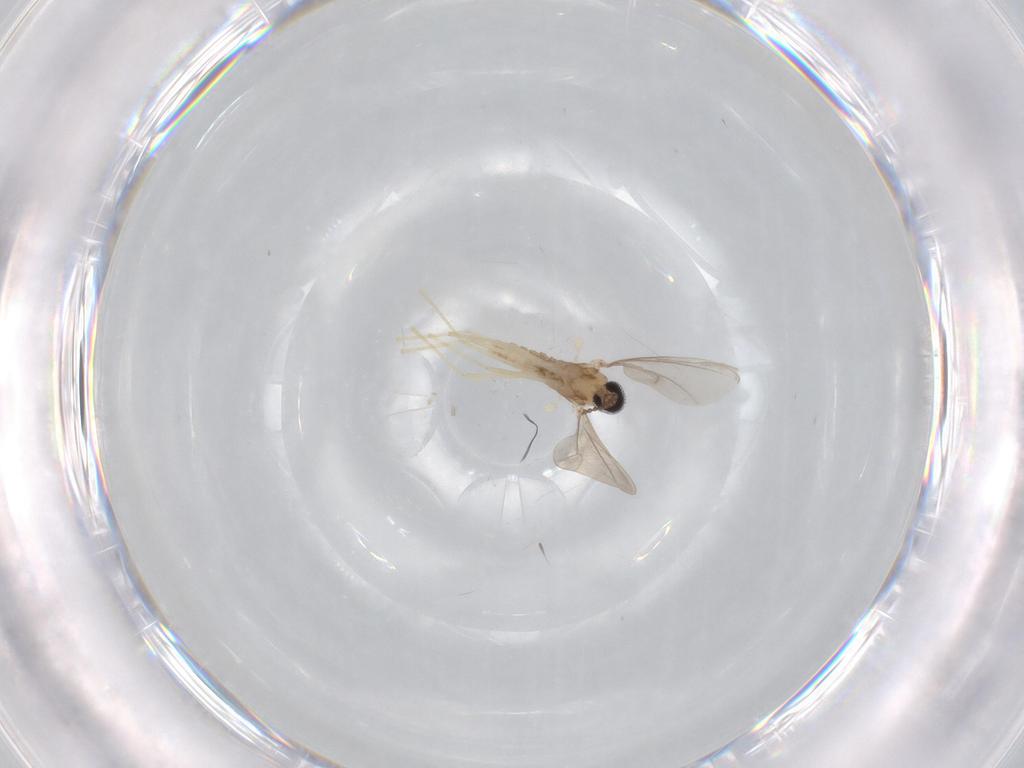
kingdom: Animalia
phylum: Arthropoda
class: Insecta
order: Diptera
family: Cecidomyiidae
